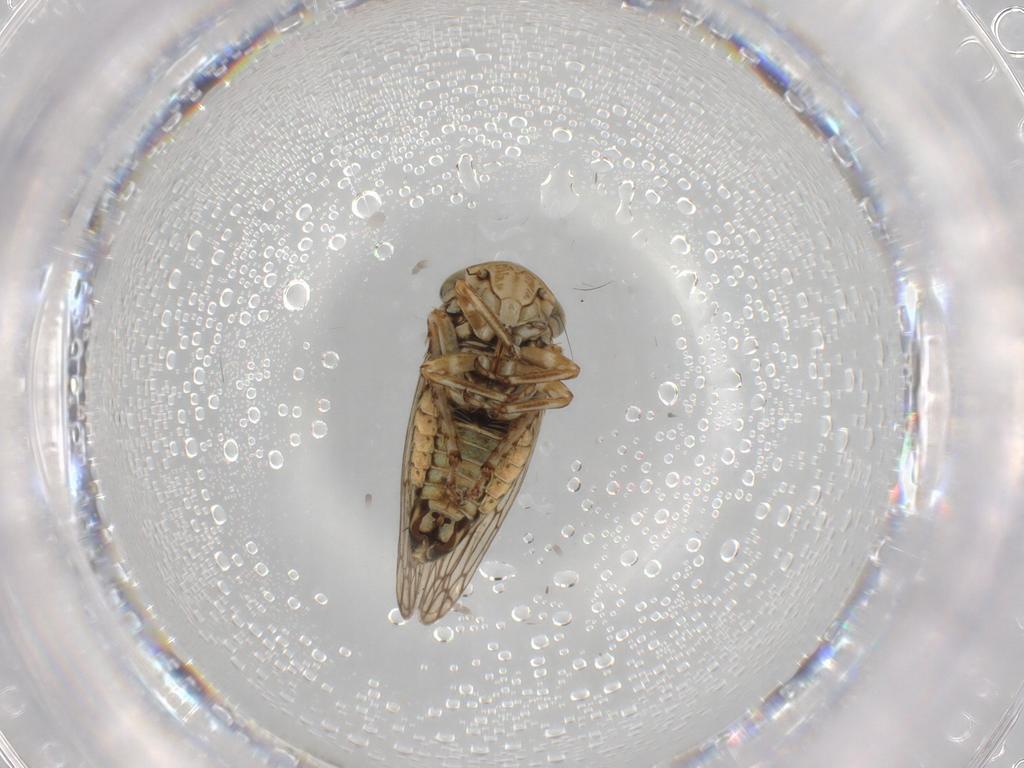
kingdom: Animalia
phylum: Arthropoda
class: Insecta
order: Hemiptera
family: Cicadellidae
